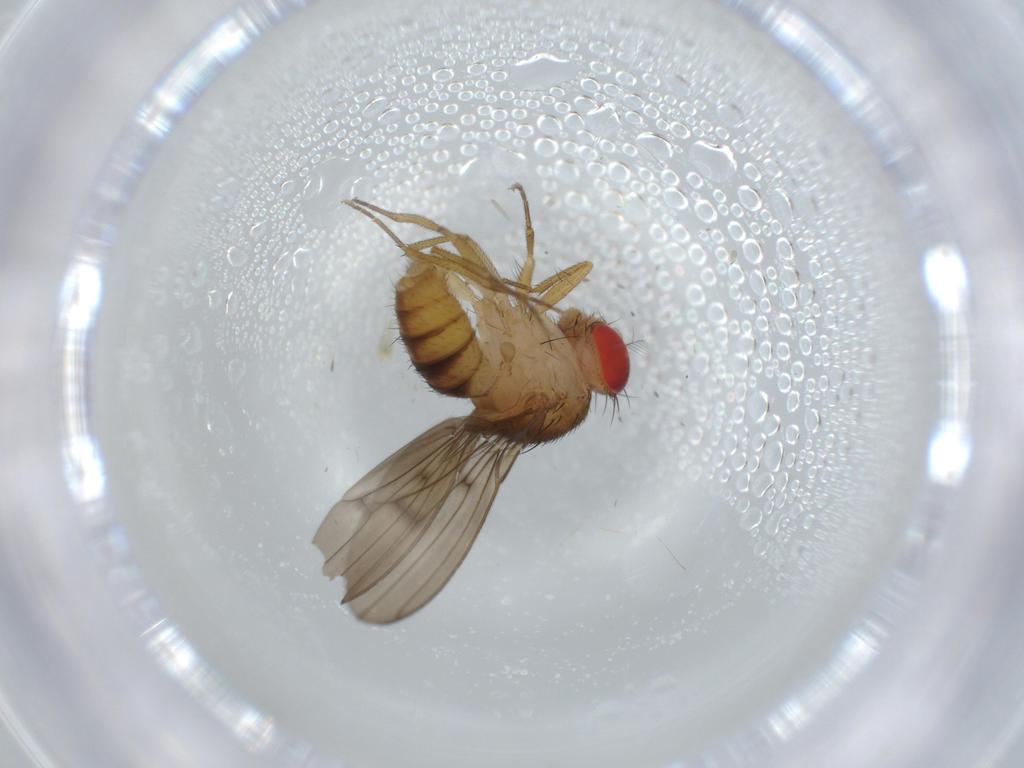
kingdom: Animalia
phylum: Arthropoda
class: Insecta
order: Diptera
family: Drosophilidae
